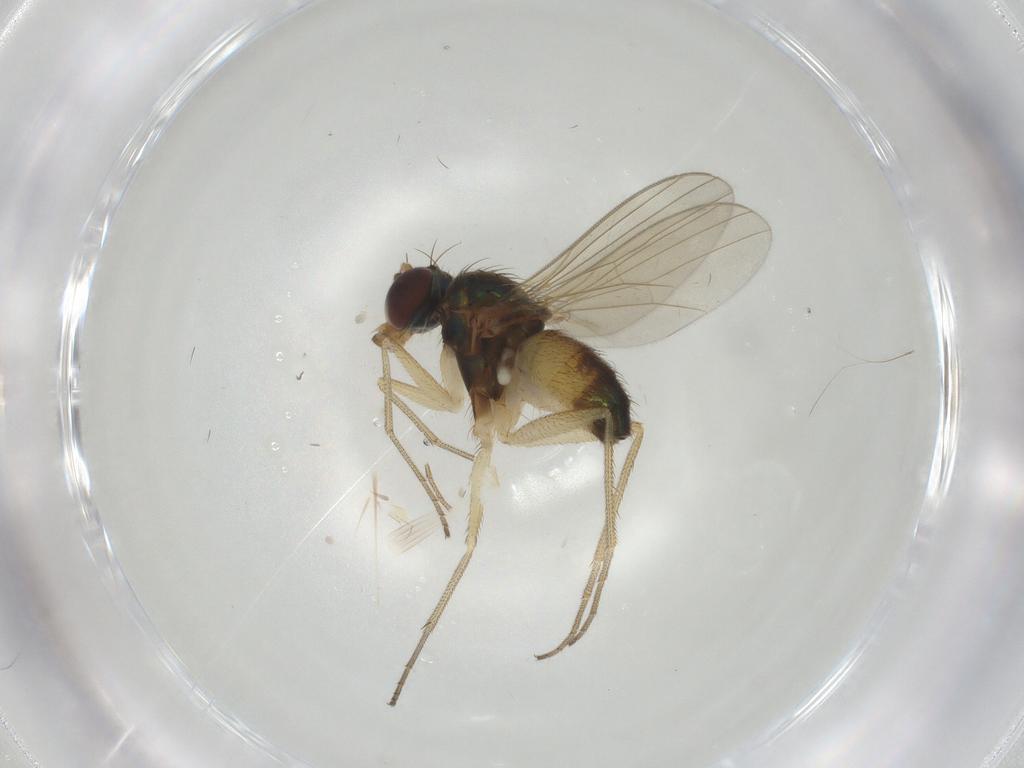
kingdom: Animalia
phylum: Arthropoda
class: Insecta
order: Diptera
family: Dolichopodidae
